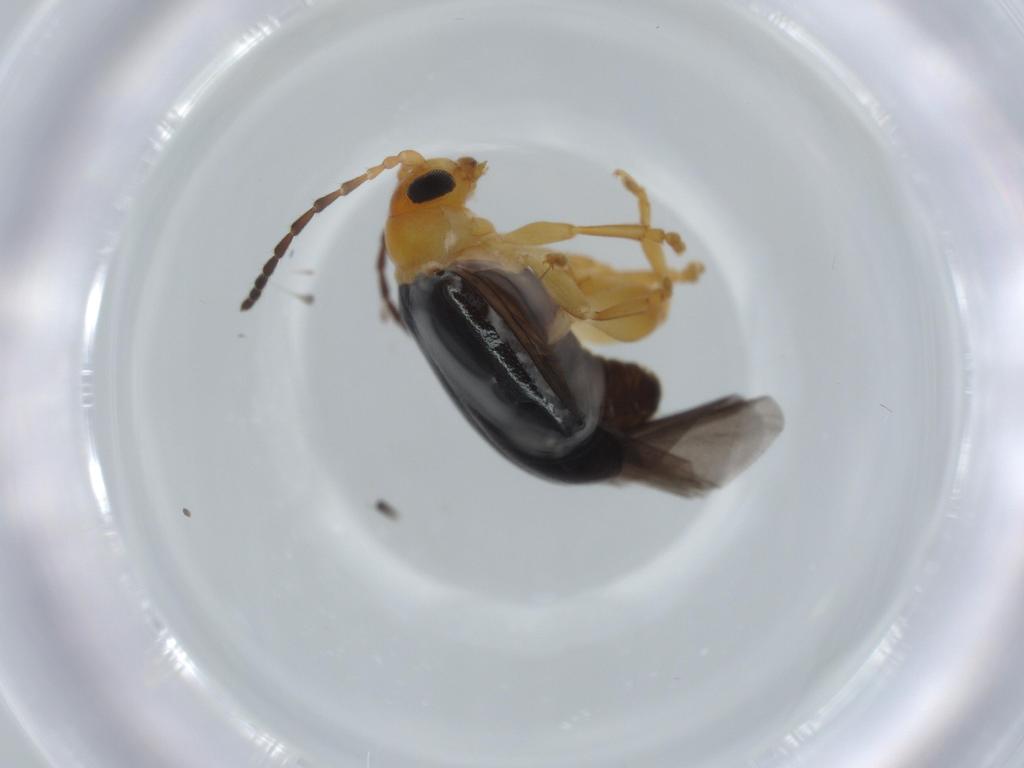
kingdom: Animalia
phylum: Arthropoda
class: Insecta
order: Coleoptera
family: Chrysomelidae
